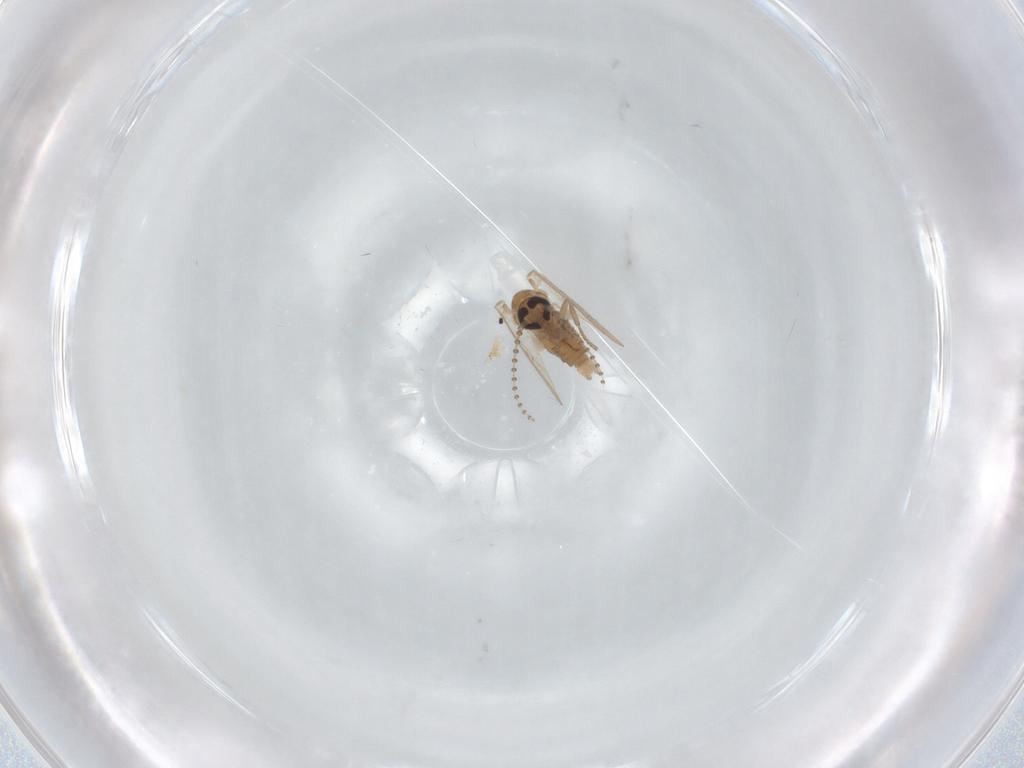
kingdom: Animalia
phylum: Arthropoda
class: Insecta
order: Diptera
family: Psychodidae
